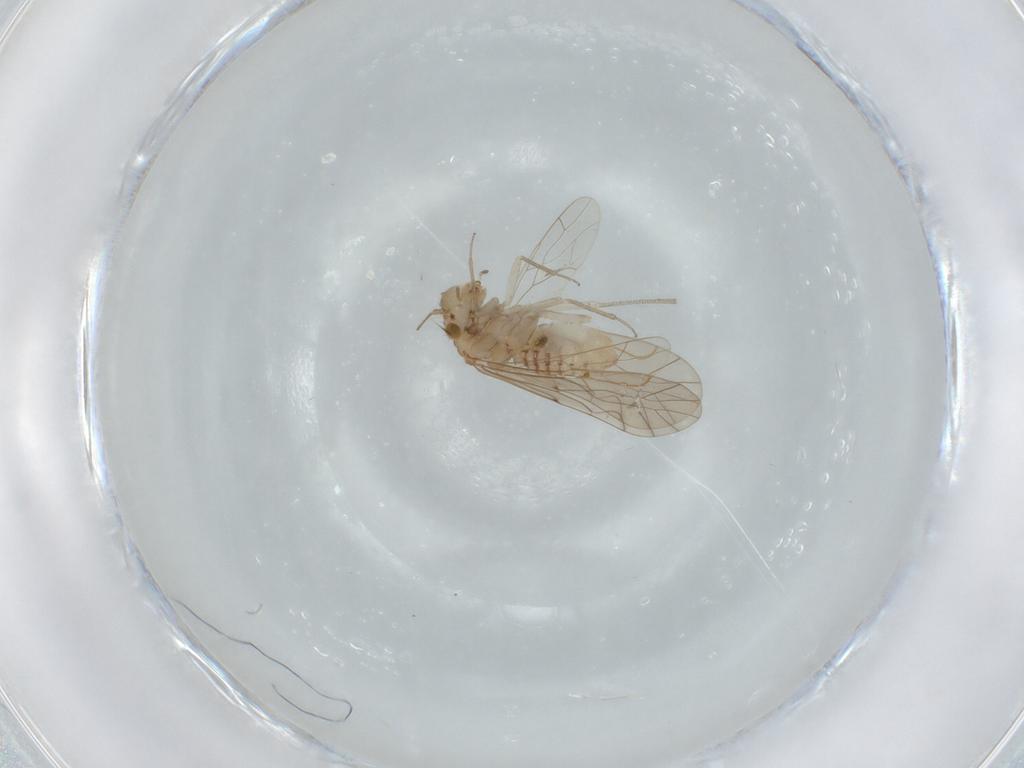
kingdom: Animalia
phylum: Arthropoda
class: Insecta
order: Psocodea
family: Lachesillidae
